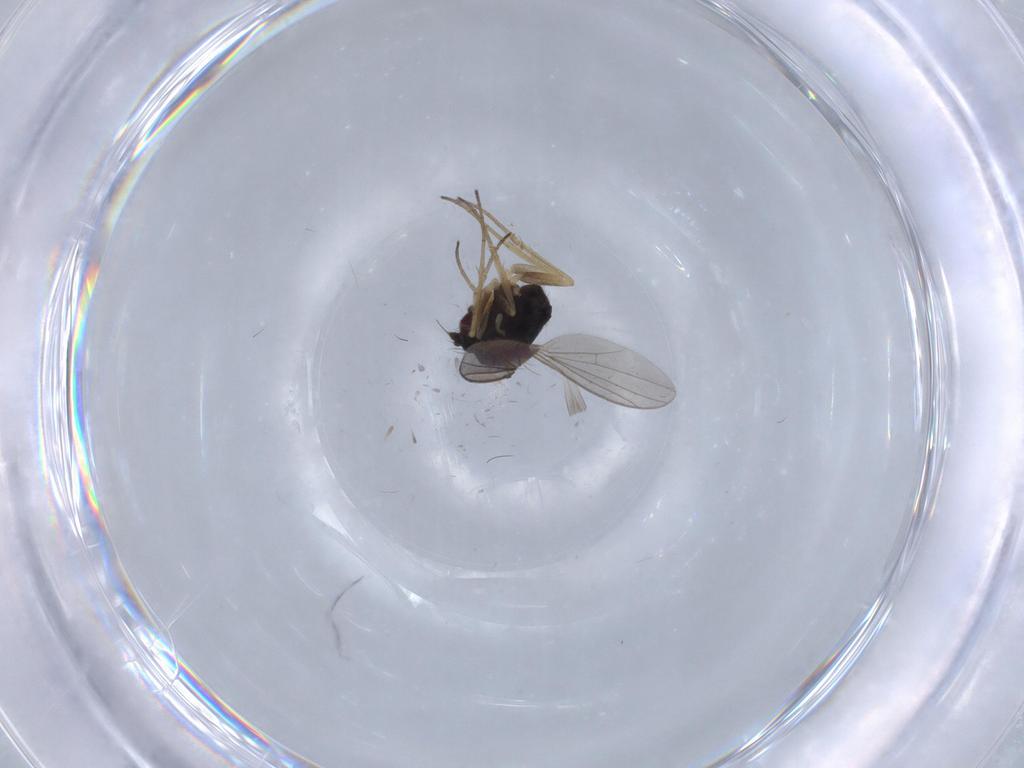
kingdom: Animalia
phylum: Arthropoda
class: Insecta
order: Diptera
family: Dolichopodidae
